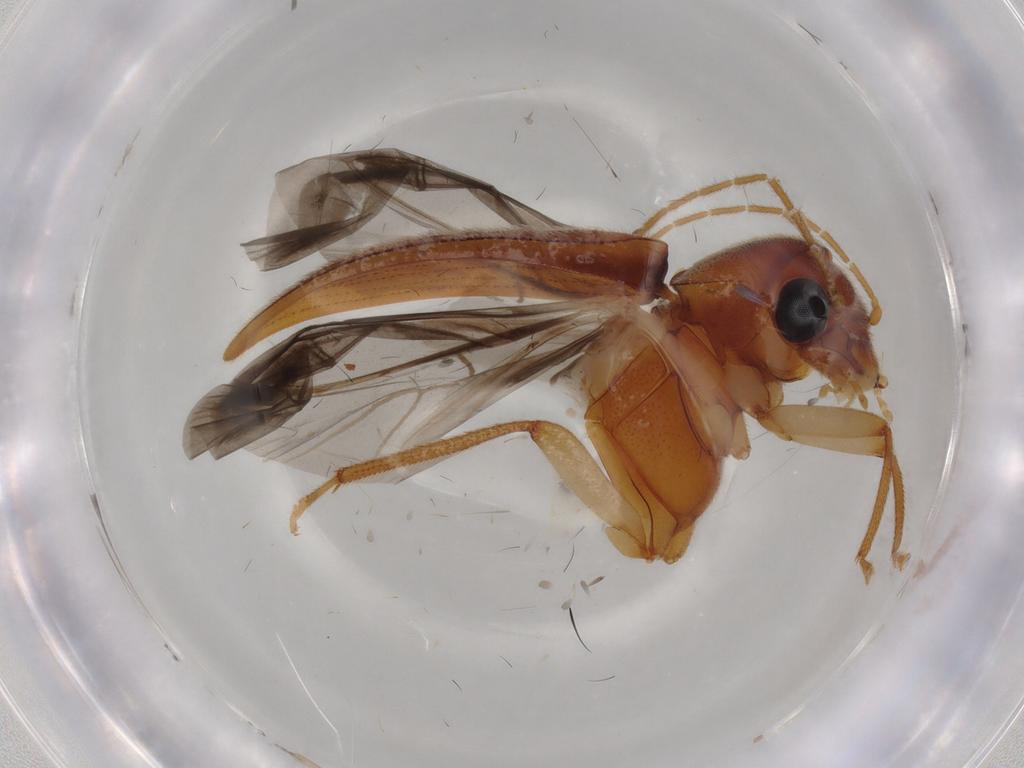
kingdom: Animalia
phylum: Arthropoda
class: Insecta
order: Coleoptera
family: Ptilodactylidae
